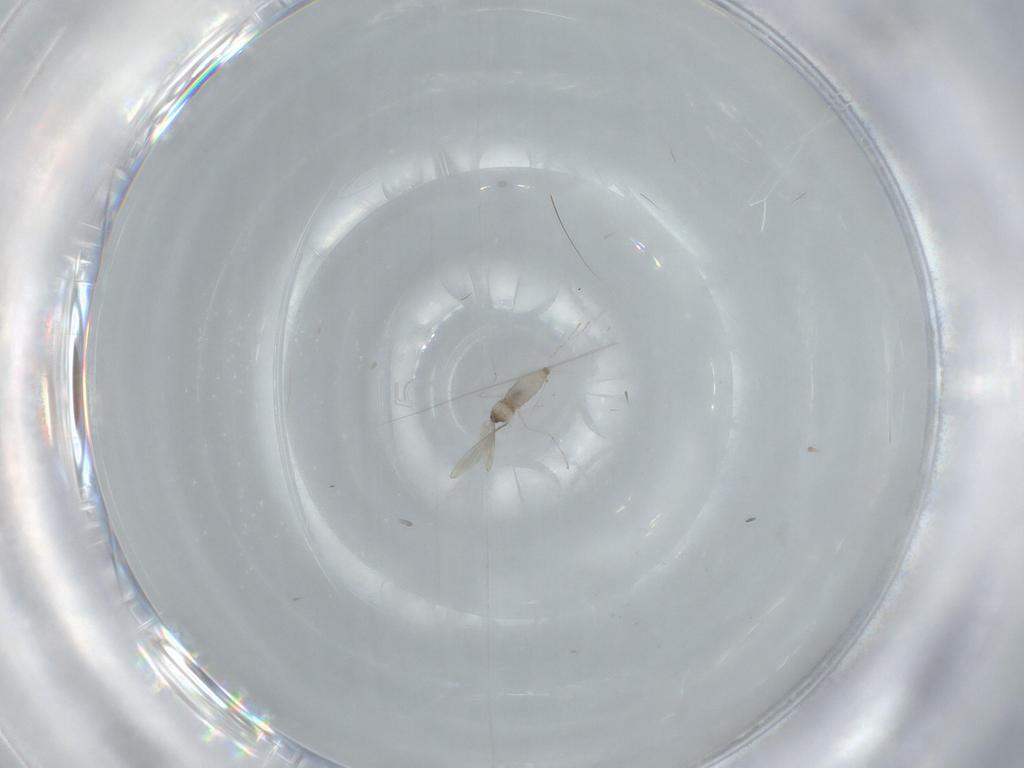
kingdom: Animalia
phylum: Arthropoda
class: Insecta
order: Diptera
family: Cecidomyiidae
